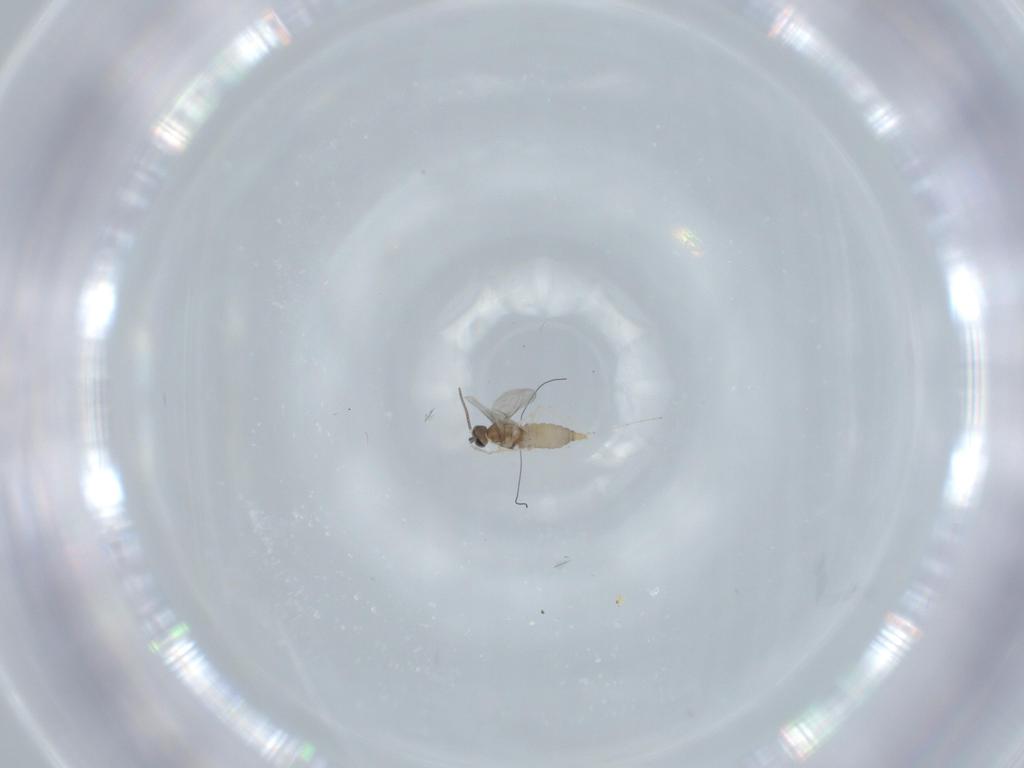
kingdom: Animalia
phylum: Arthropoda
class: Insecta
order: Diptera
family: Cecidomyiidae
